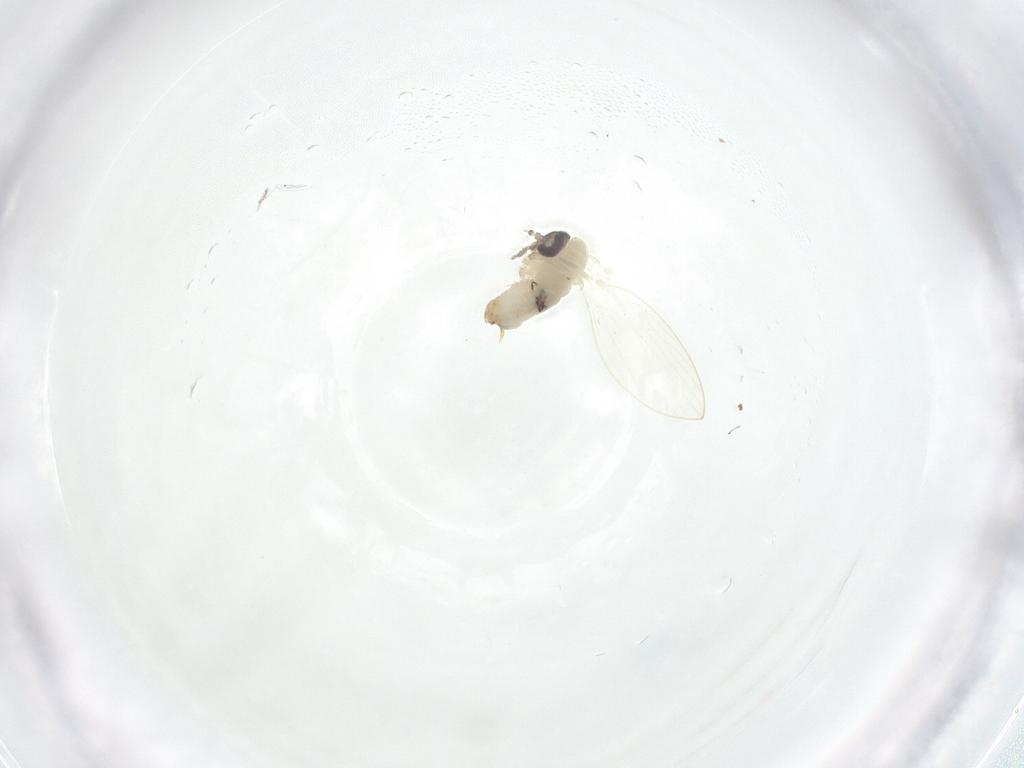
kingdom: Animalia
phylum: Arthropoda
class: Insecta
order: Diptera
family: Psychodidae
